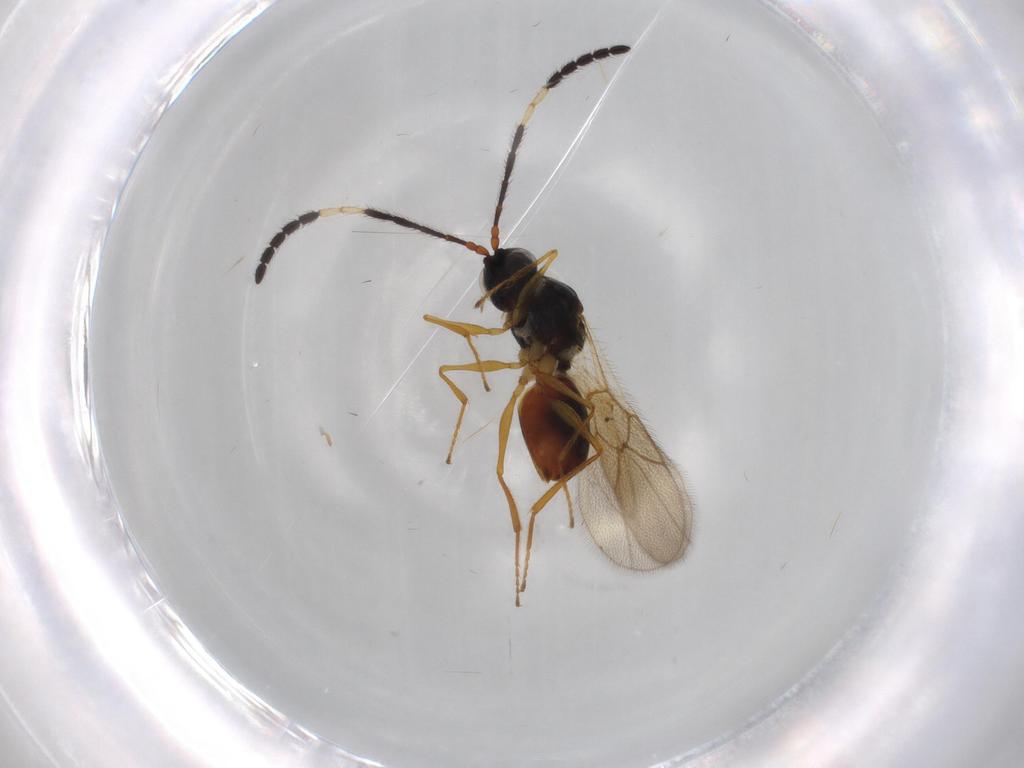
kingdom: Animalia
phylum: Arthropoda
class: Insecta
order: Hymenoptera
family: Figitidae
